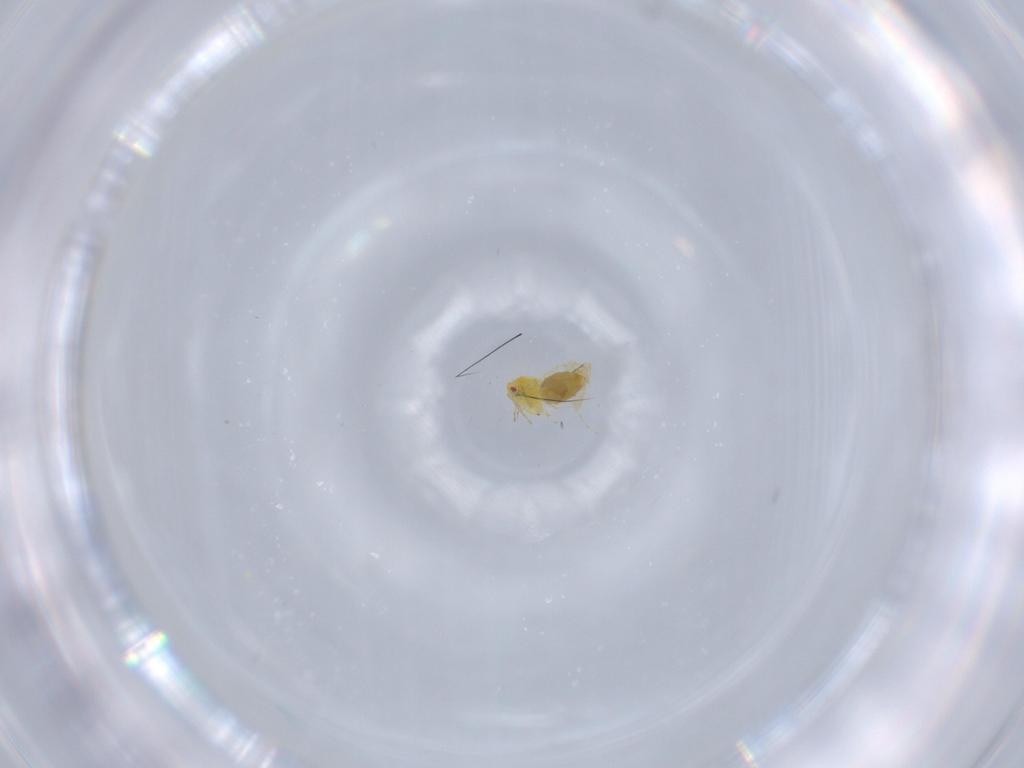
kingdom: Animalia
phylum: Arthropoda
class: Insecta
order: Hemiptera
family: Aleyrodidae
